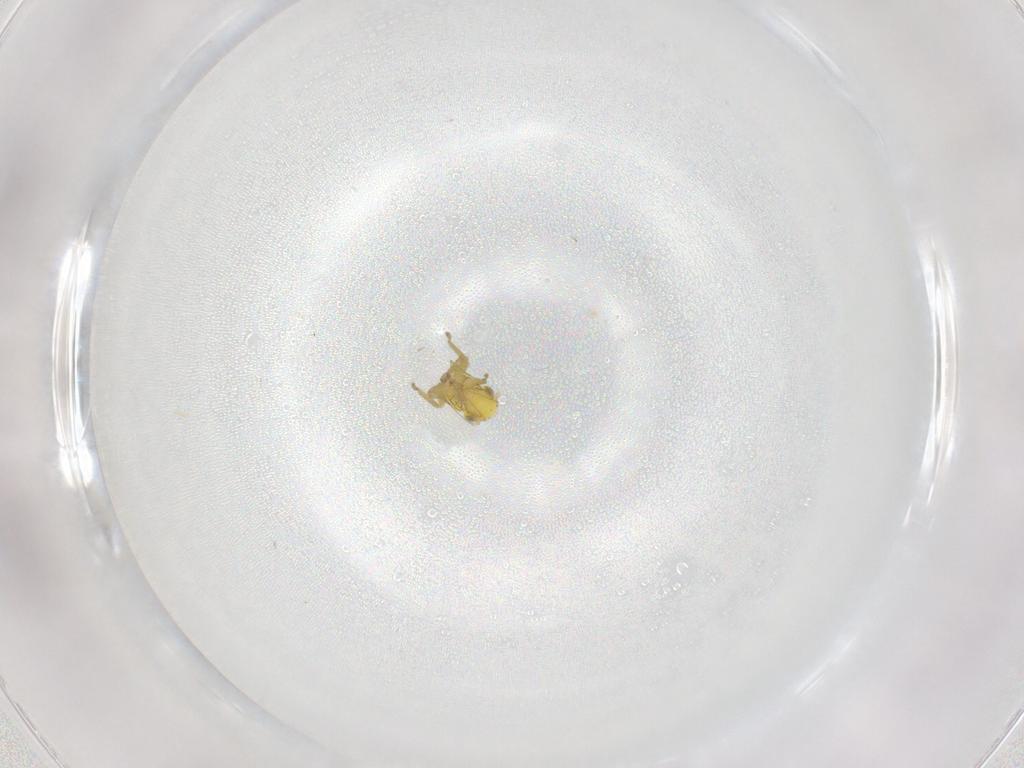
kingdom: Animalia
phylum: Arthropoda
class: Insecta
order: Hemiptera
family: Cicadellidae
